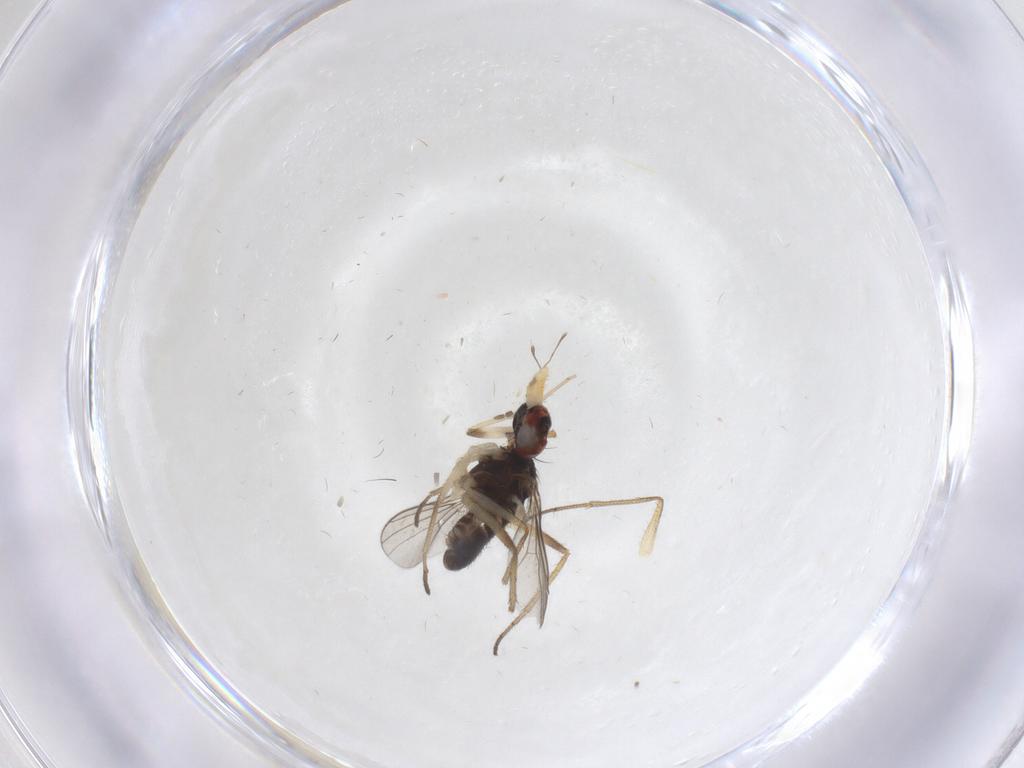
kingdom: Animalia
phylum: Arthropoda
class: Insecta
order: Diptera
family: Dolichopodidae
